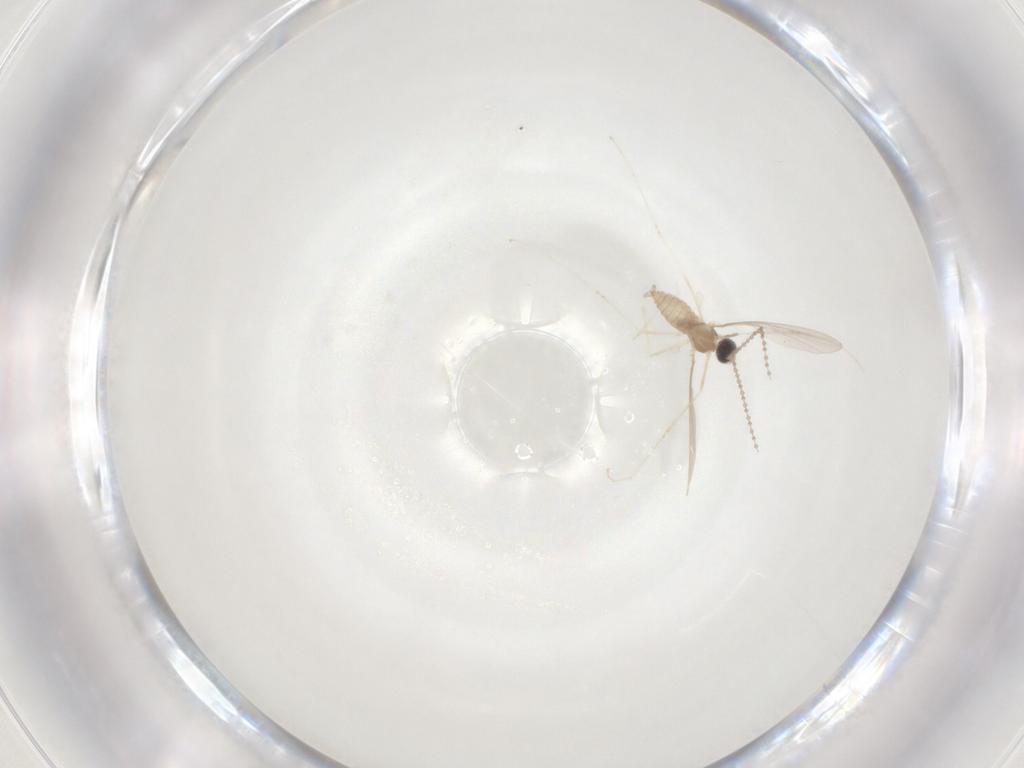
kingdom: Animalia
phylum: Arthropoda
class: Insecta
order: Diptera
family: Cecidomyiidae
